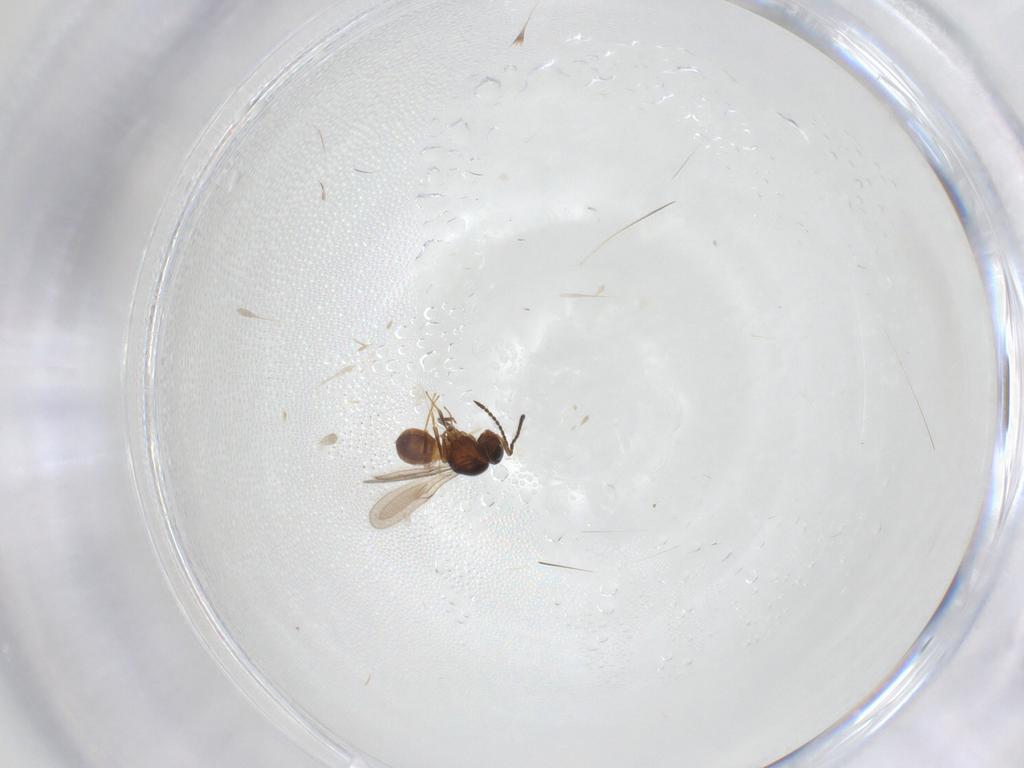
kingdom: Animalia
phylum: Arthropoda
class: Insecta
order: Hymenoptera
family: Scelionidae
